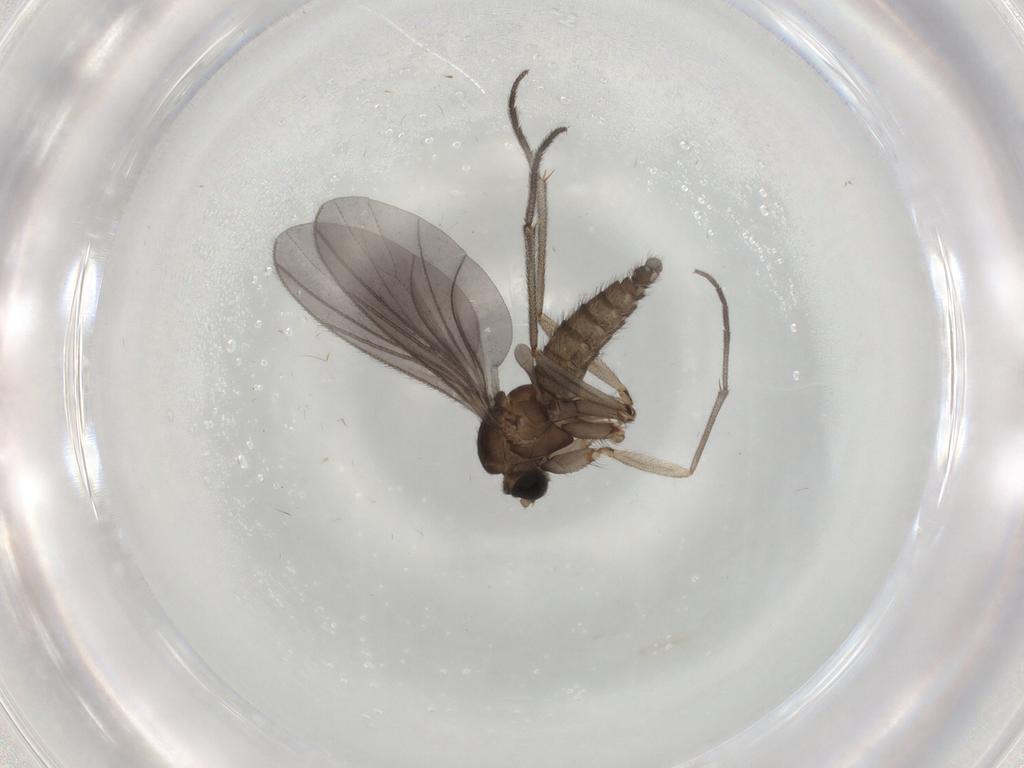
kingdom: Animalia
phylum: Arthropoda
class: Insecta
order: Diptera
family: Sciaridae
